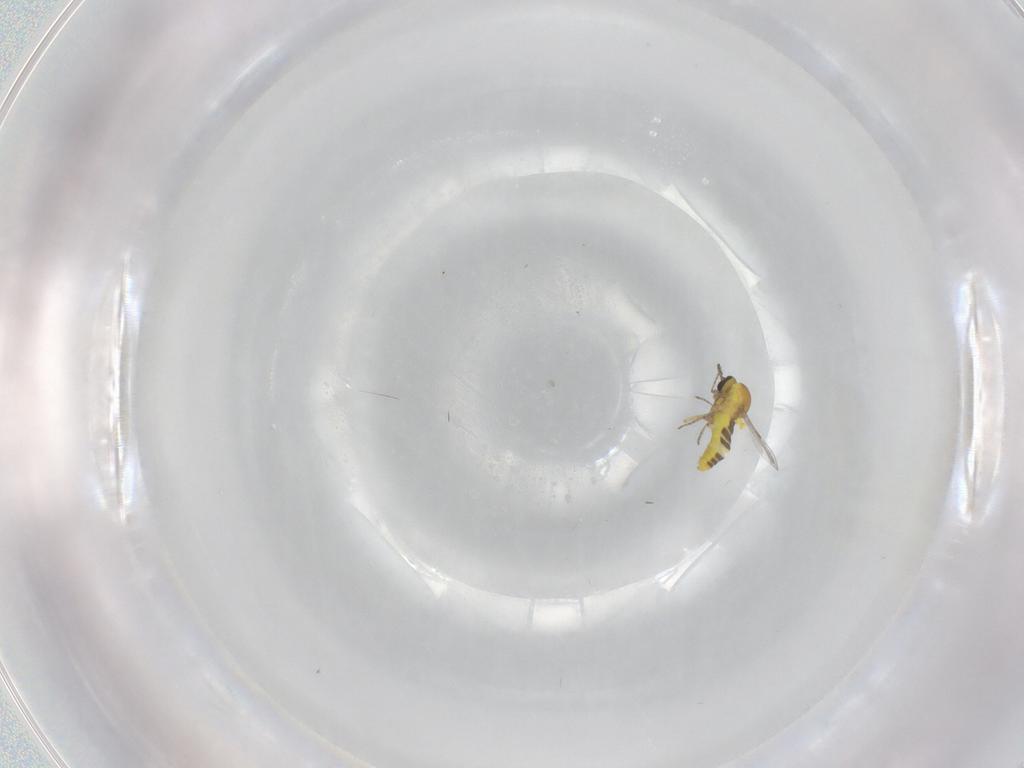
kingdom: Animalia
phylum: Arthropoda
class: Insecta
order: Diptera
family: Ceratopogonidae
